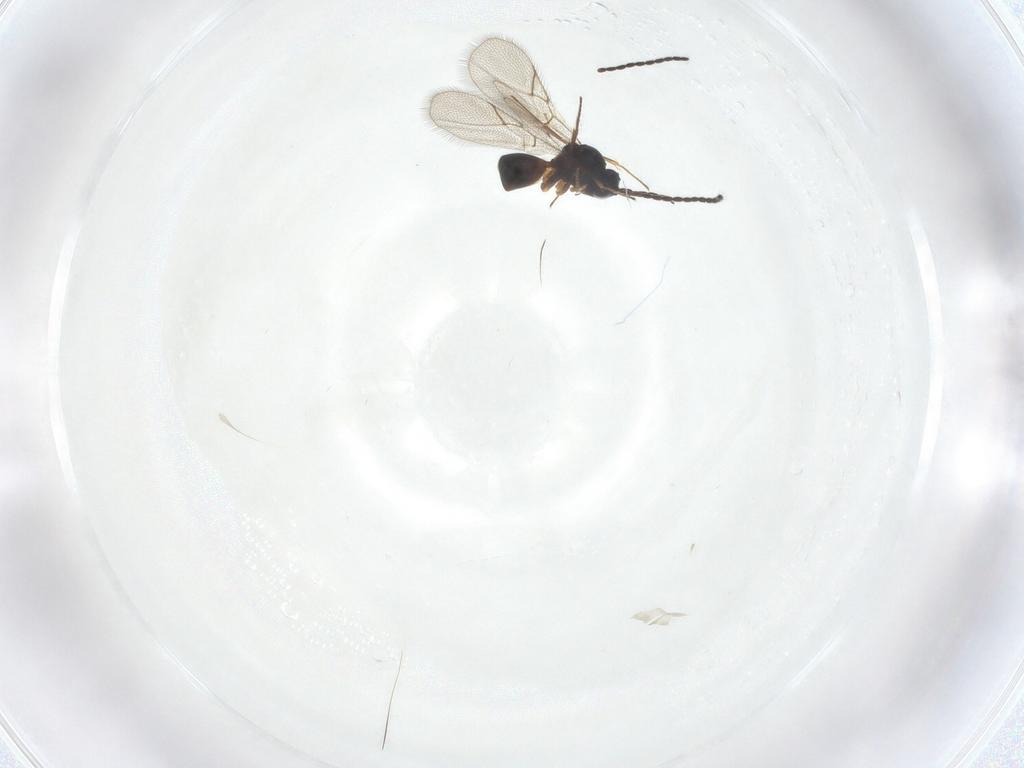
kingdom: Animalia
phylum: Arthropoda
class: Insecta
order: Hymenoptera
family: Figitidae
